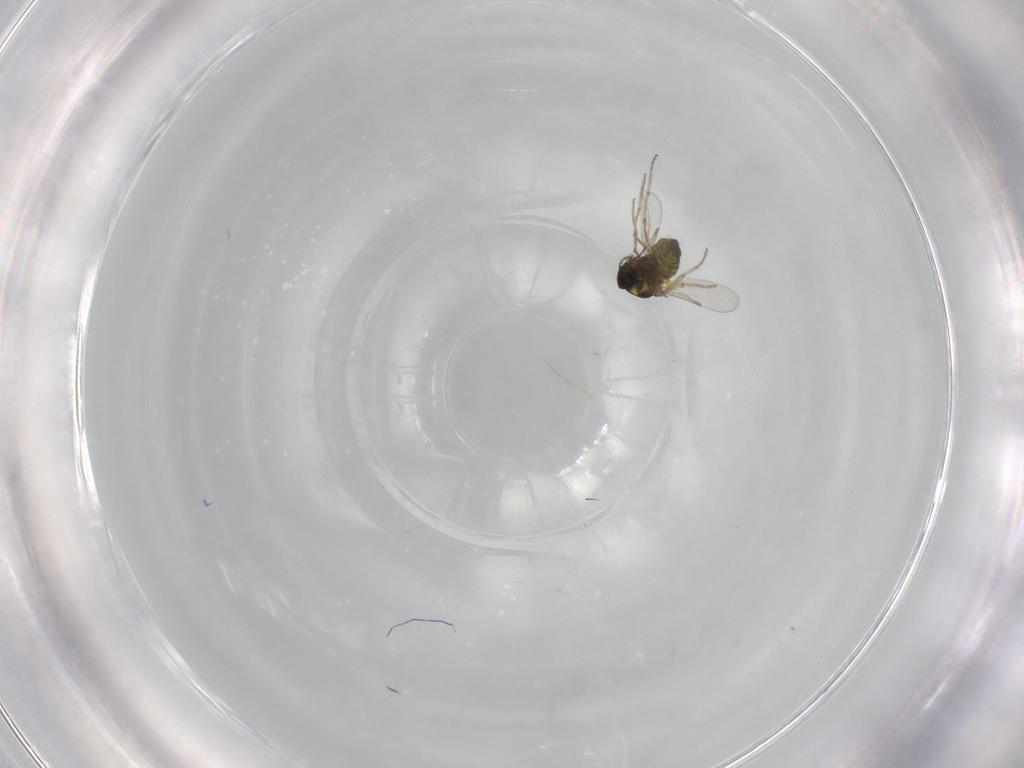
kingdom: Animalia
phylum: Arthropoda
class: Insecta
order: Diptera
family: Ceratopogonidae
